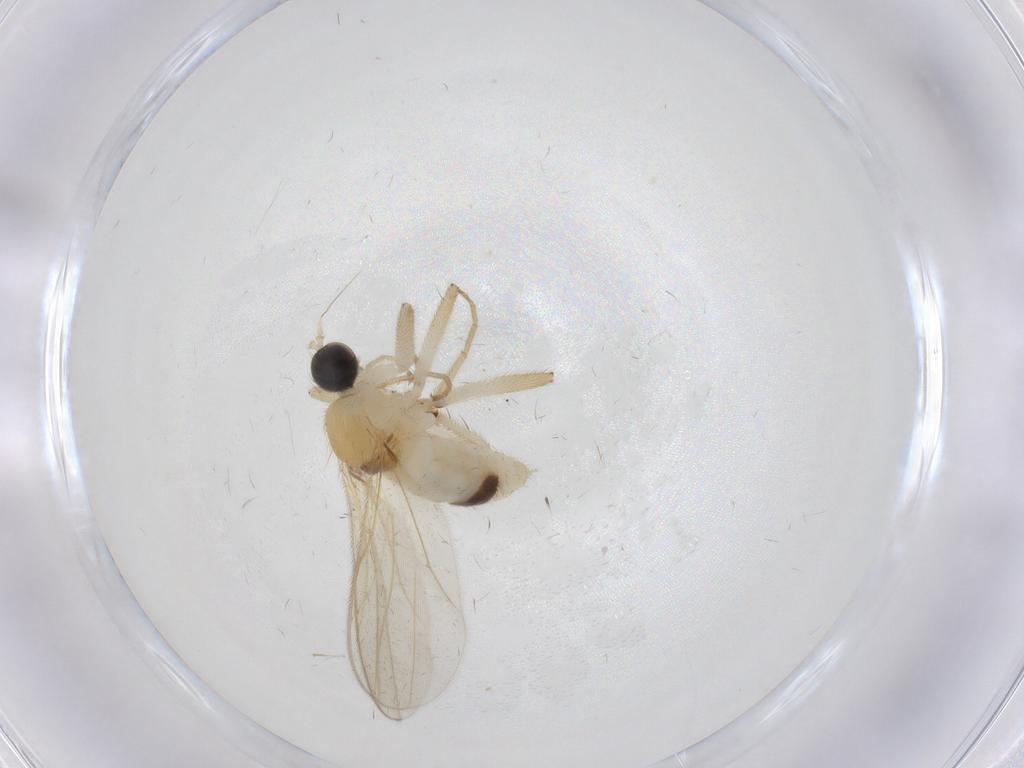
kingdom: Animalia
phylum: Arthropoda
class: Insecta
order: Diptera
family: Hybotidae
